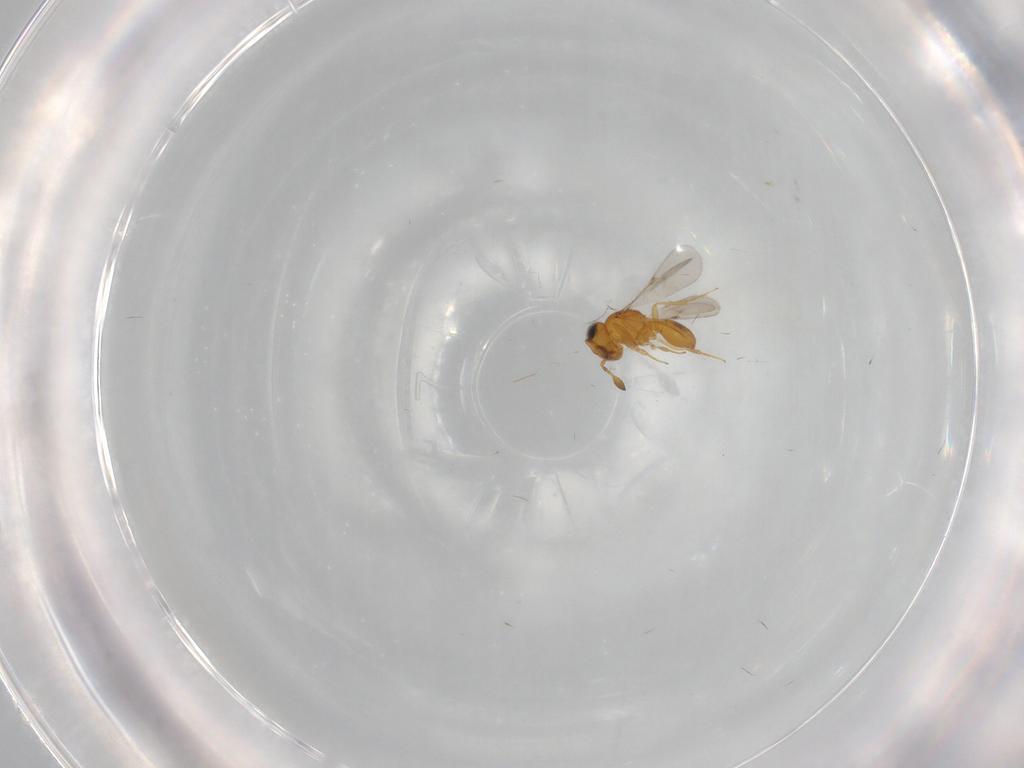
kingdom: Animalia
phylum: Arthropoda
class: Insecta
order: Hymenoptera
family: Scelionidae
